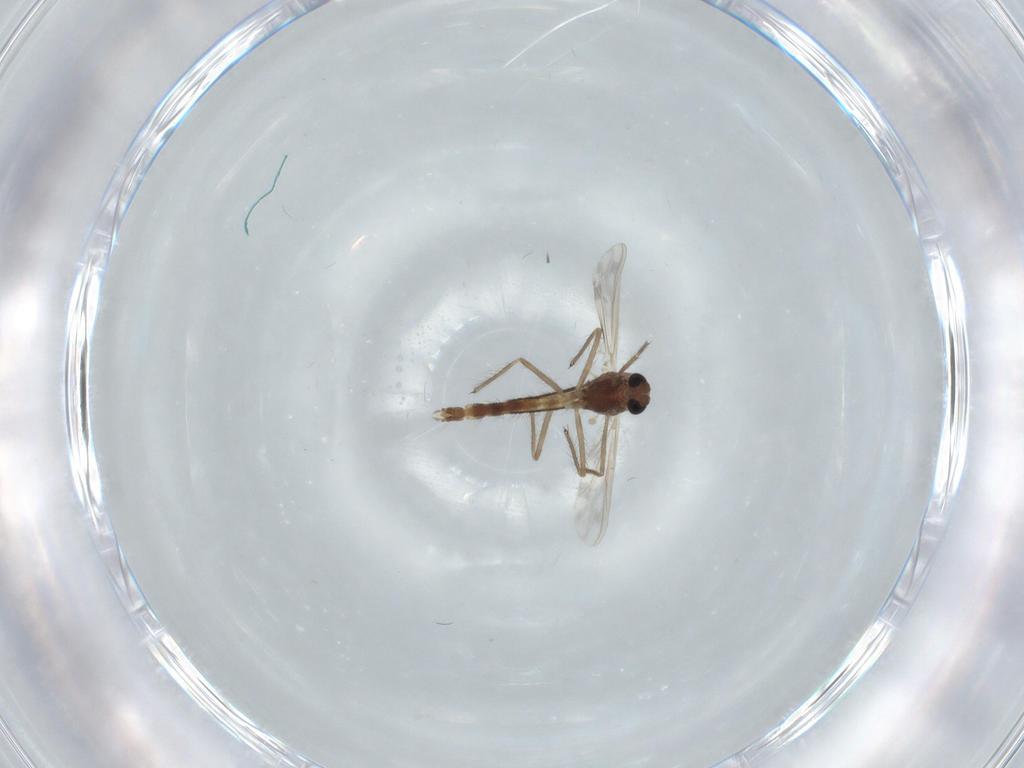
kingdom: Animalia
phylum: Arthropoda
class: Insecta
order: Diptera
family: Chironomidae
